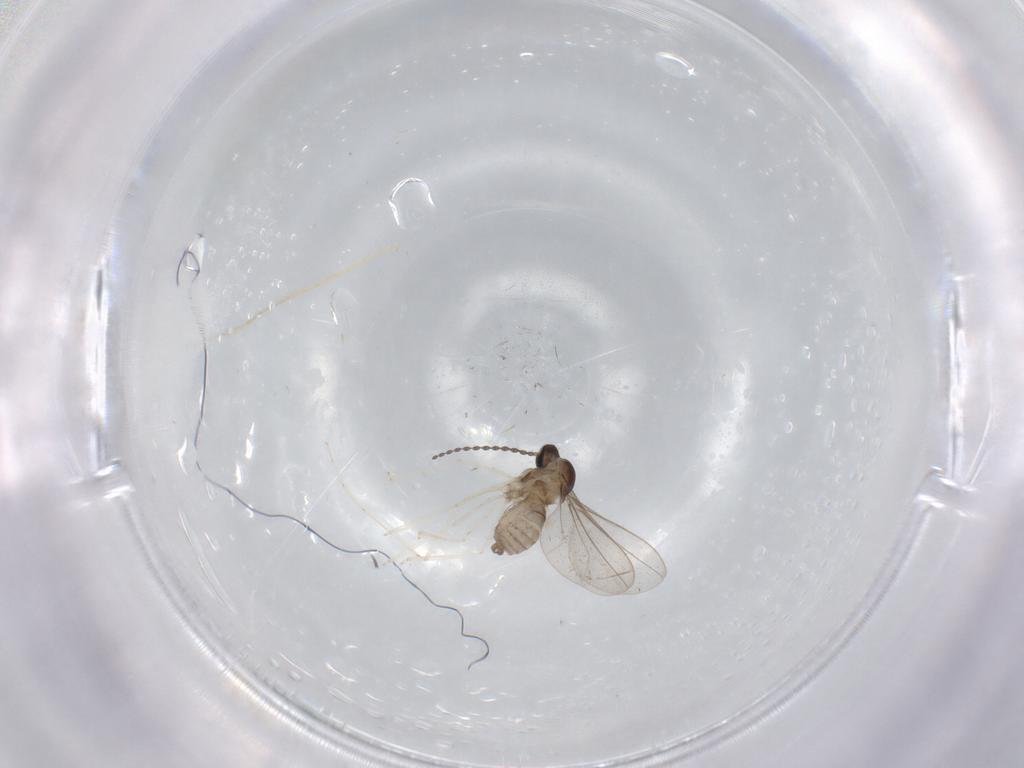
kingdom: Animalia
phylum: Arthropoda
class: Insecta
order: Diptera
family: Cecidomyiidae
